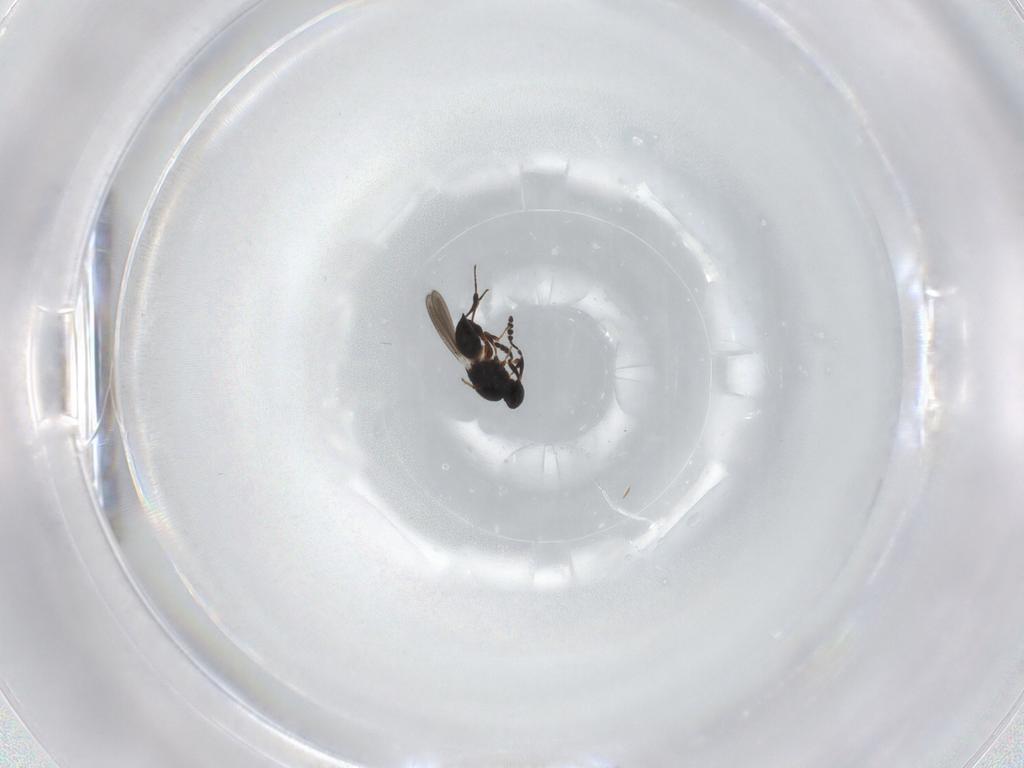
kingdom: Animalia
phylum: Arthropoda
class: Insecta
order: Hymenoptera
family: Platygastridae
